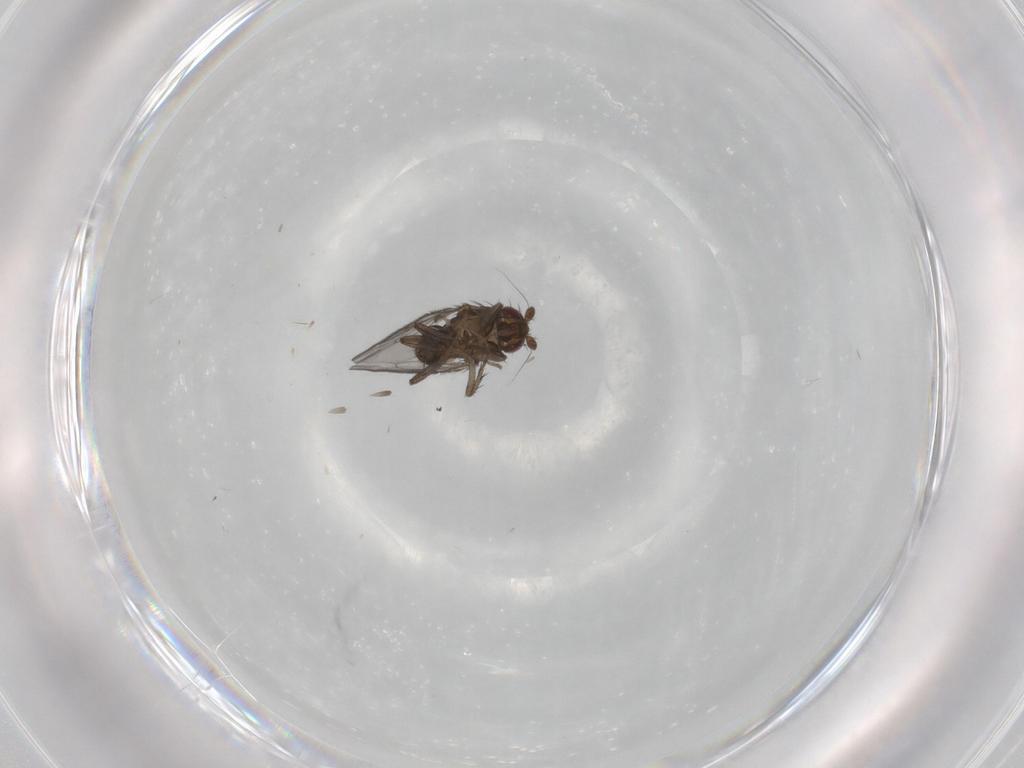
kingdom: Animalia
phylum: Arthropoda
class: Insecta
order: Diptera
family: Sphaeroceridae
